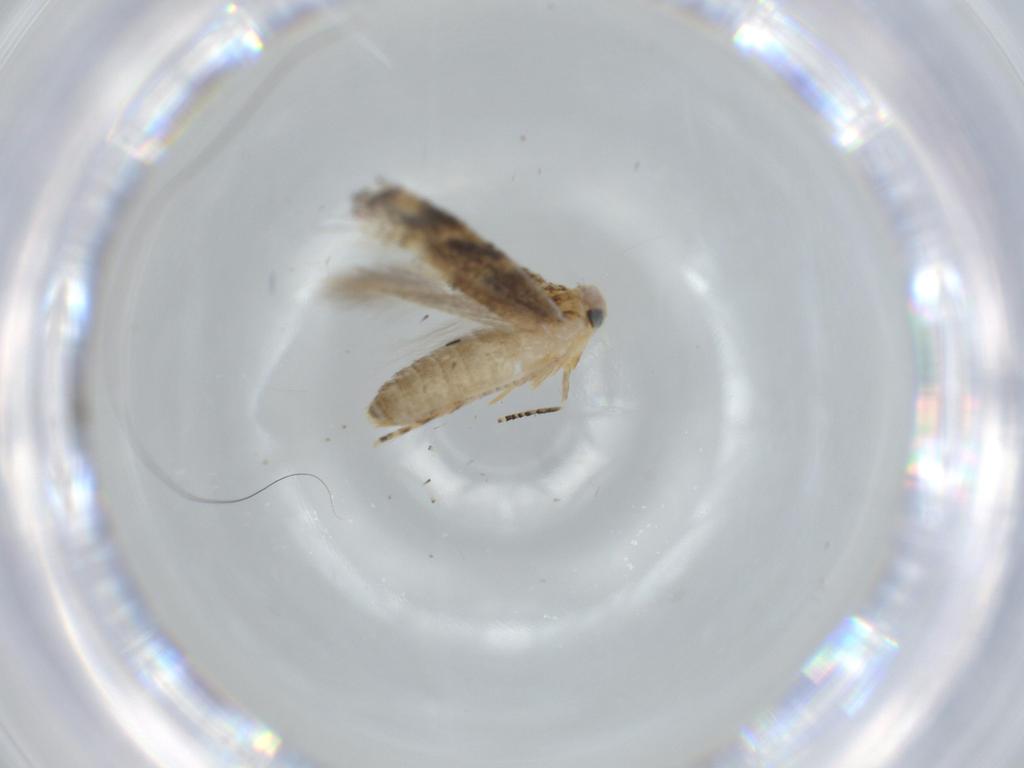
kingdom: Animalia
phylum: Arthropoda
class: Insecta
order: Lepidoptera
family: Bucculatricidae
